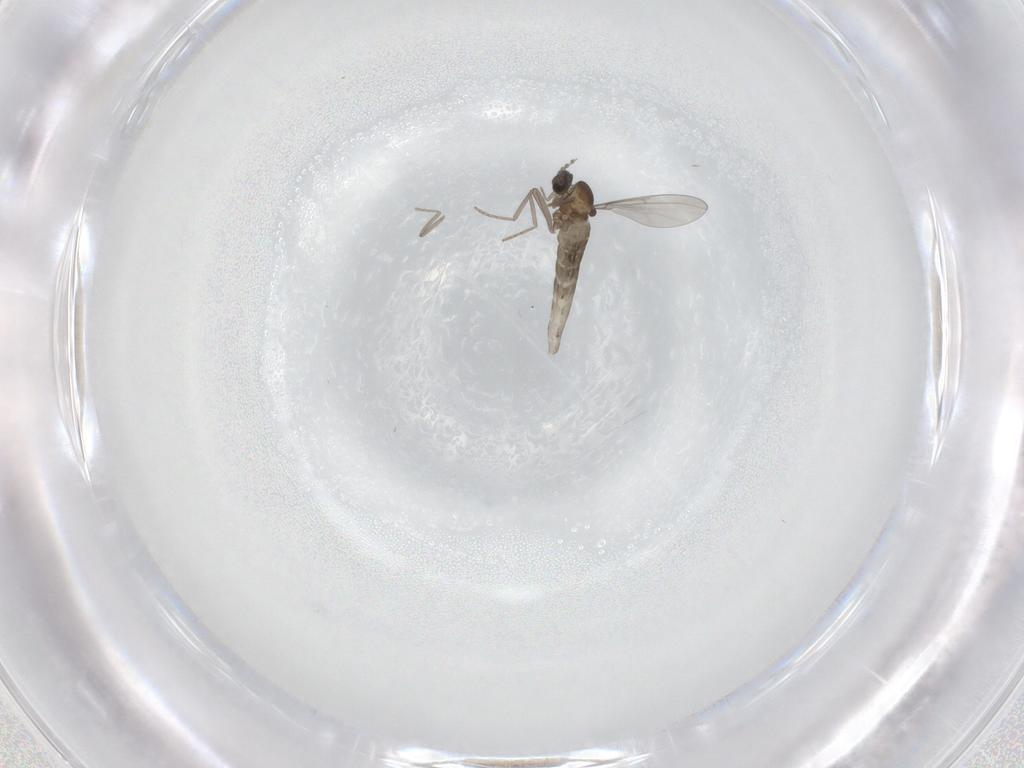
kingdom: Animalia
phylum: Arthropoda
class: Insecta
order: Diptera
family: Cecidomyiidae
